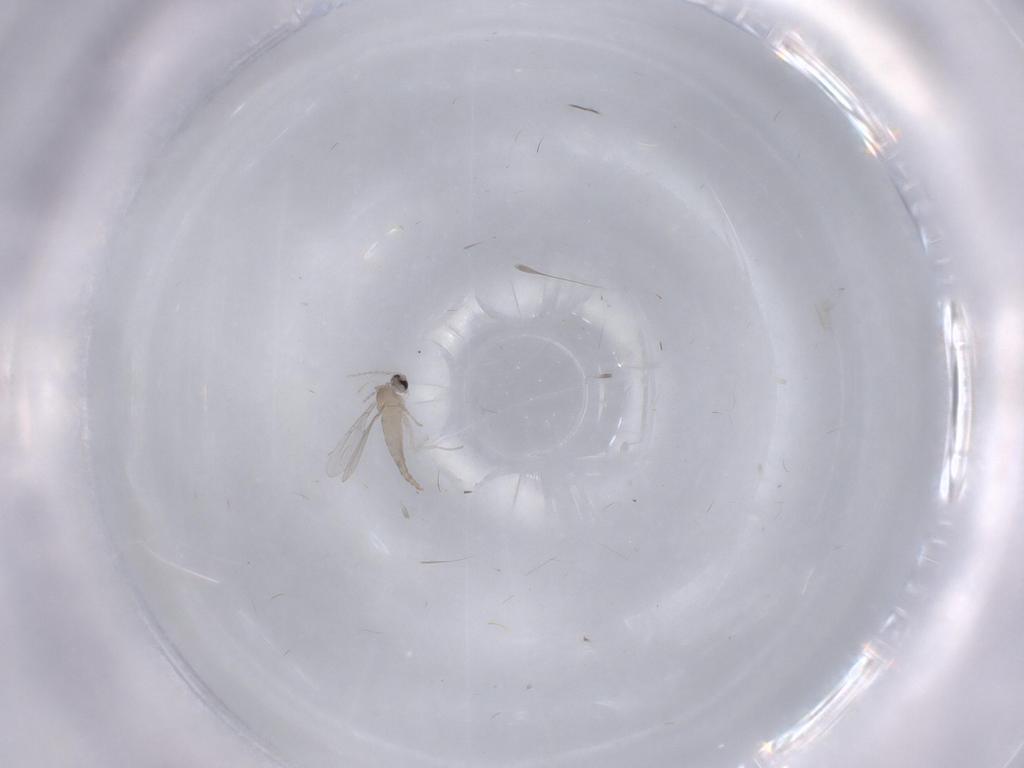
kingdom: Animalia
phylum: Arthropoda
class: Insecta
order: Diptera
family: Cecidomyiidae
